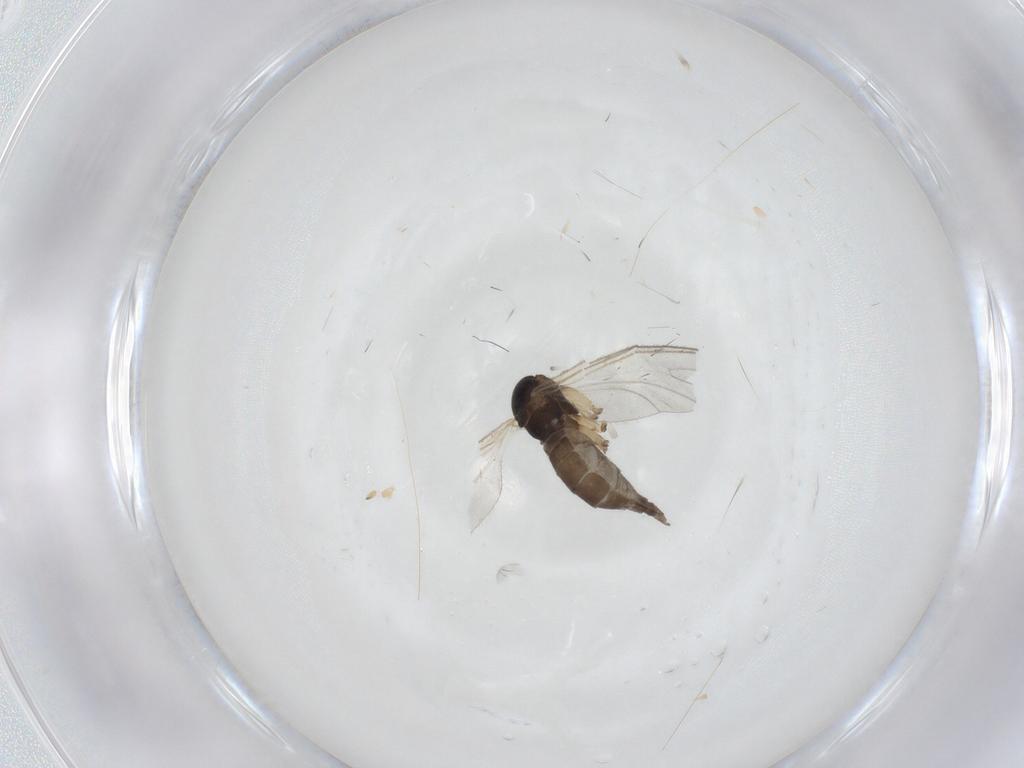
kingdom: Animalia
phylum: Arthropoda
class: Insecta
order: Diptera
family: Sciaridae
